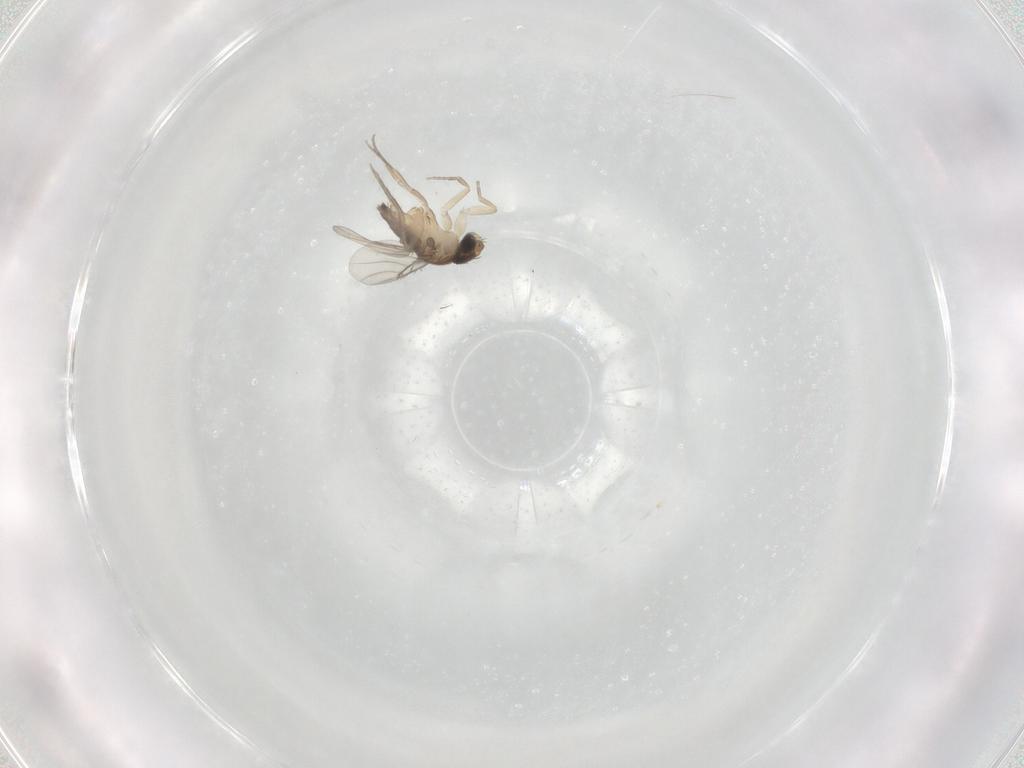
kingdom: Animalia
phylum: Arthropoda
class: Insecta
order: Diptera
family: Phoridae
